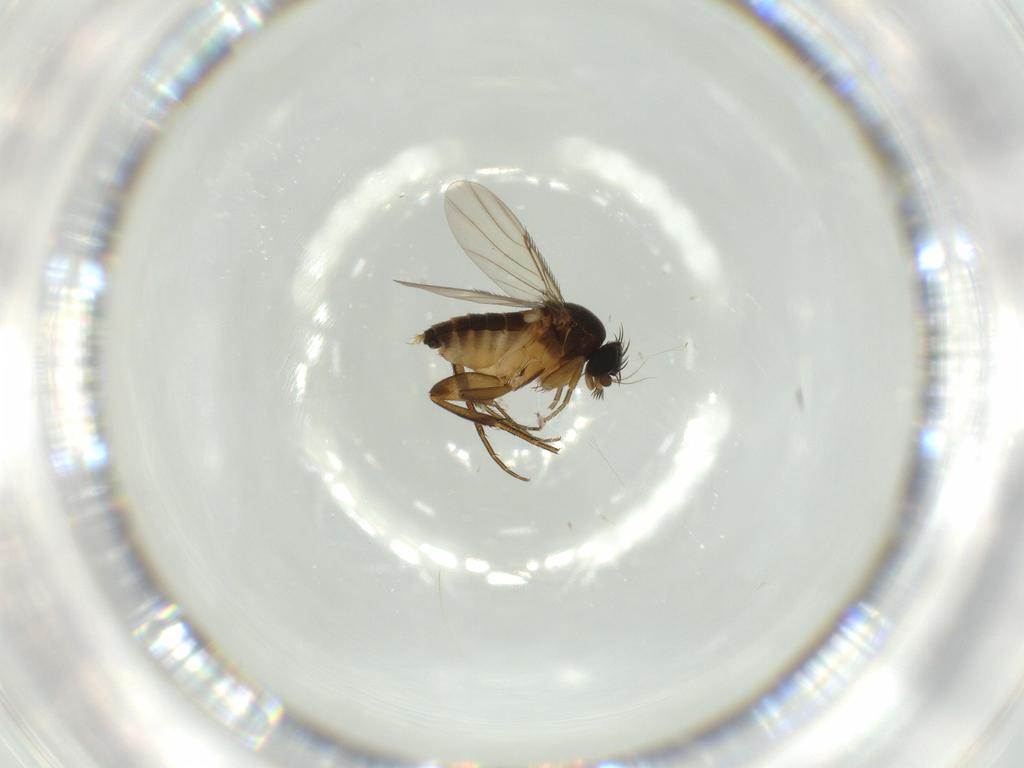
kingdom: Animalia
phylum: Arthropoda
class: Insecta
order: Diptera
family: Phoridae
